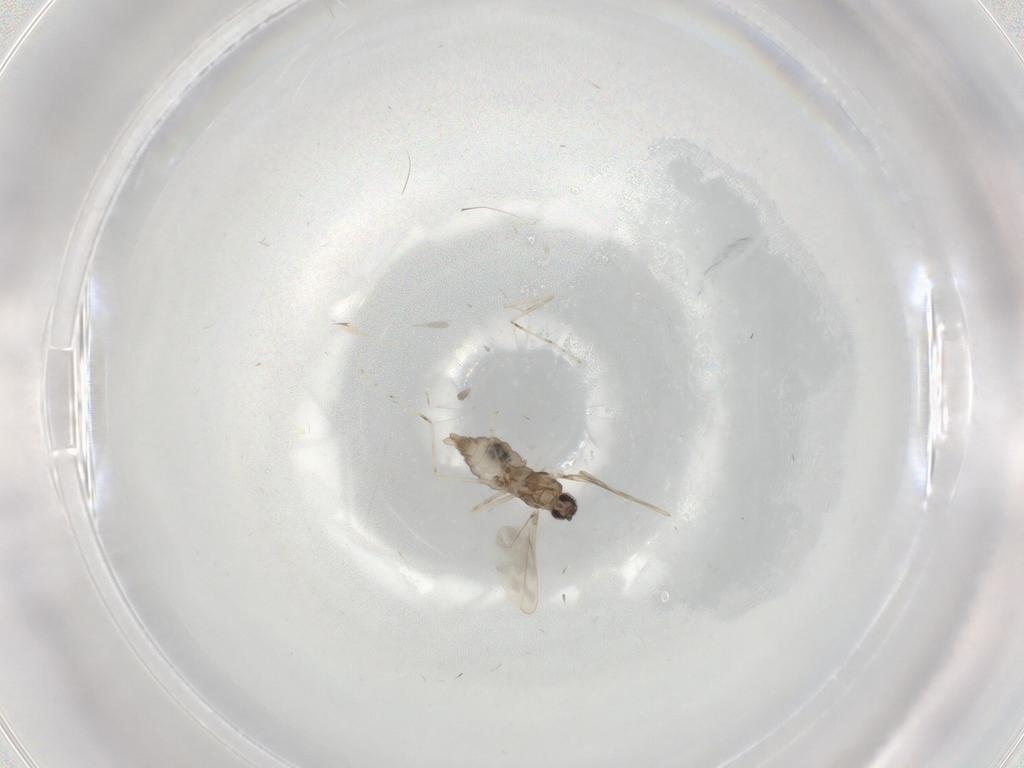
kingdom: Animalia
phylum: Arthropoda
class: Insecta
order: Diptera
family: Cecidomyiidae
